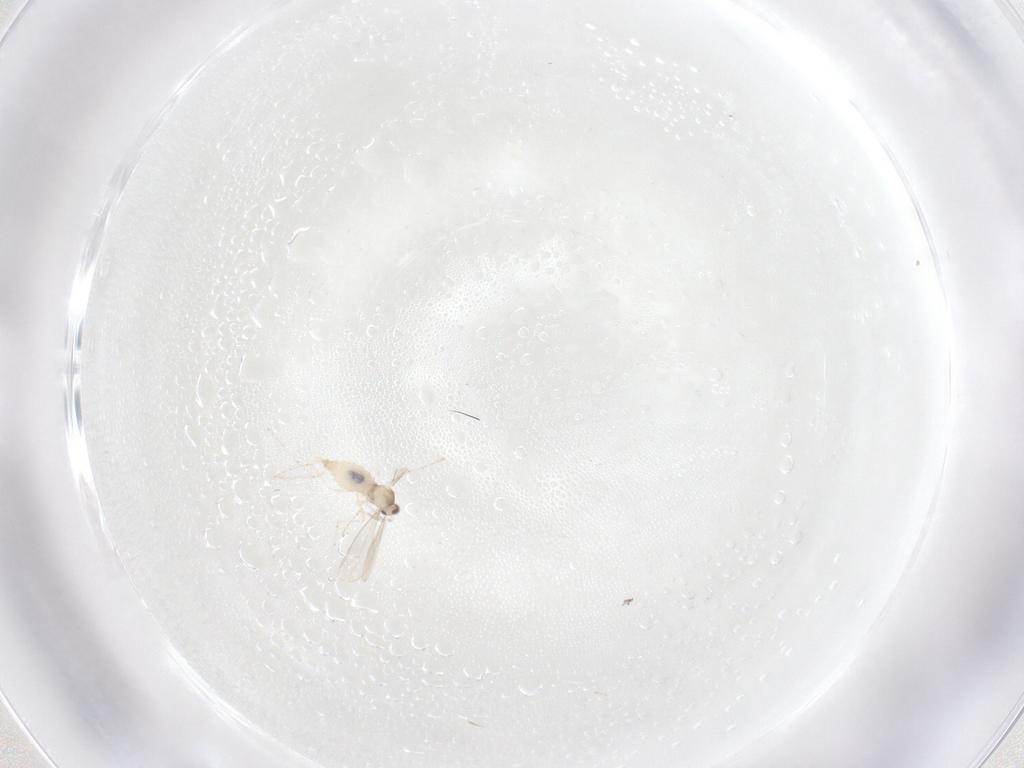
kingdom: Animalia
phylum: Arthropoda
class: Insecta
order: Diptera
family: Cecidomyiidae
